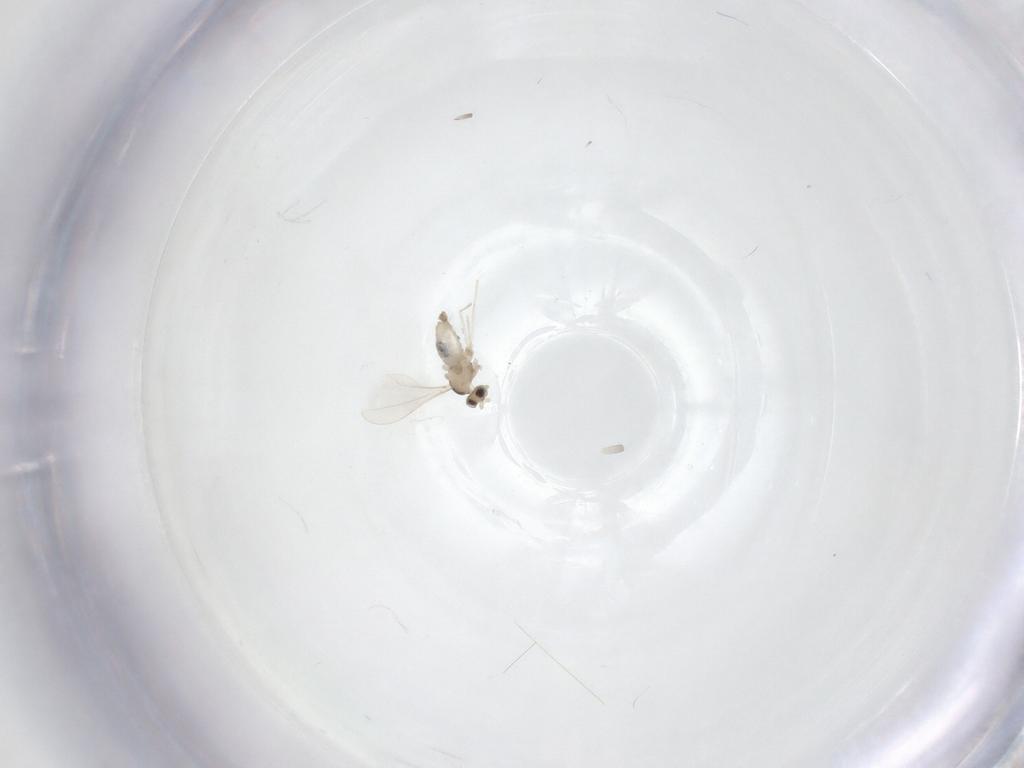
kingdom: Animalia
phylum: Arthropoda
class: Insecta
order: Diptera
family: Cecidomyiidae
